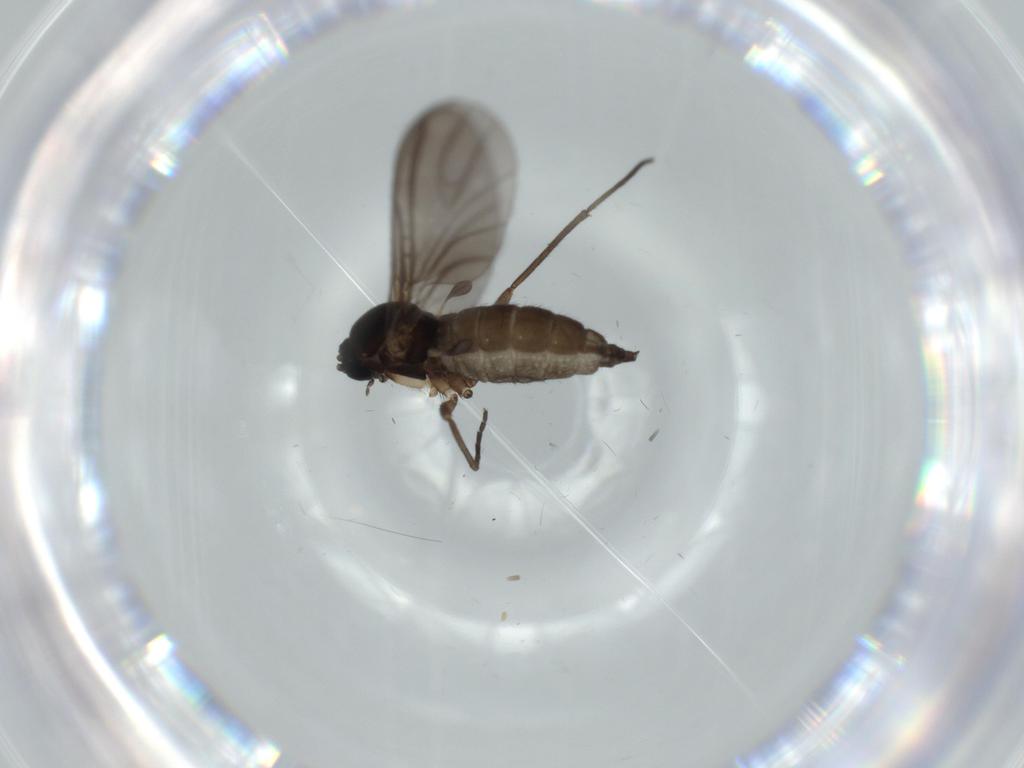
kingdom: Animalia
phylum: Arthropoda
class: Insecta
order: Diptera
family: Sciaridae
